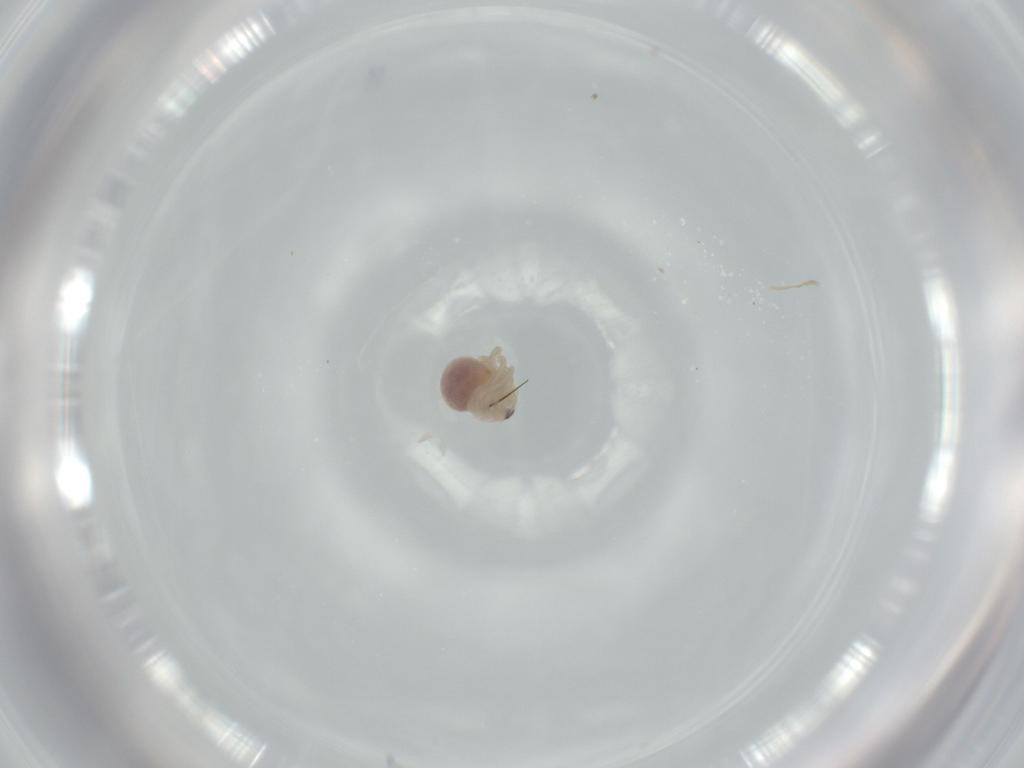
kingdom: Animalia
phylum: Arthropoda
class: Arachnida
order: Araneae
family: Pholcidae
